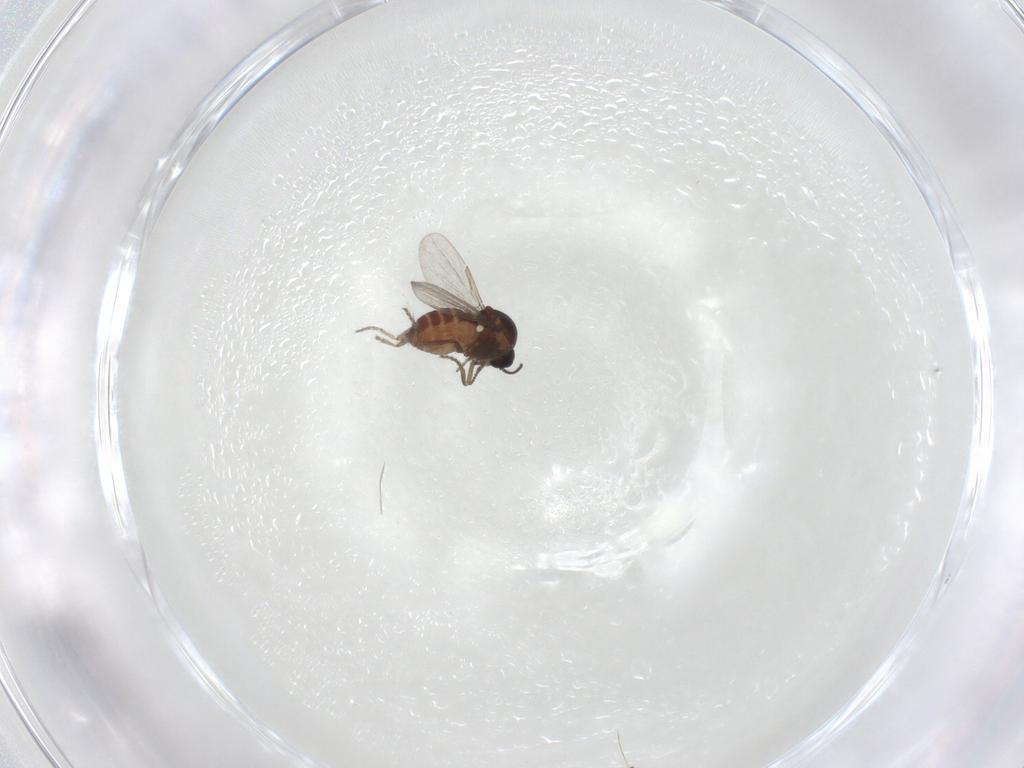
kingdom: Animalia
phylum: Arthropoda
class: Insecta
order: Diptera
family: Ceratopogonidae
